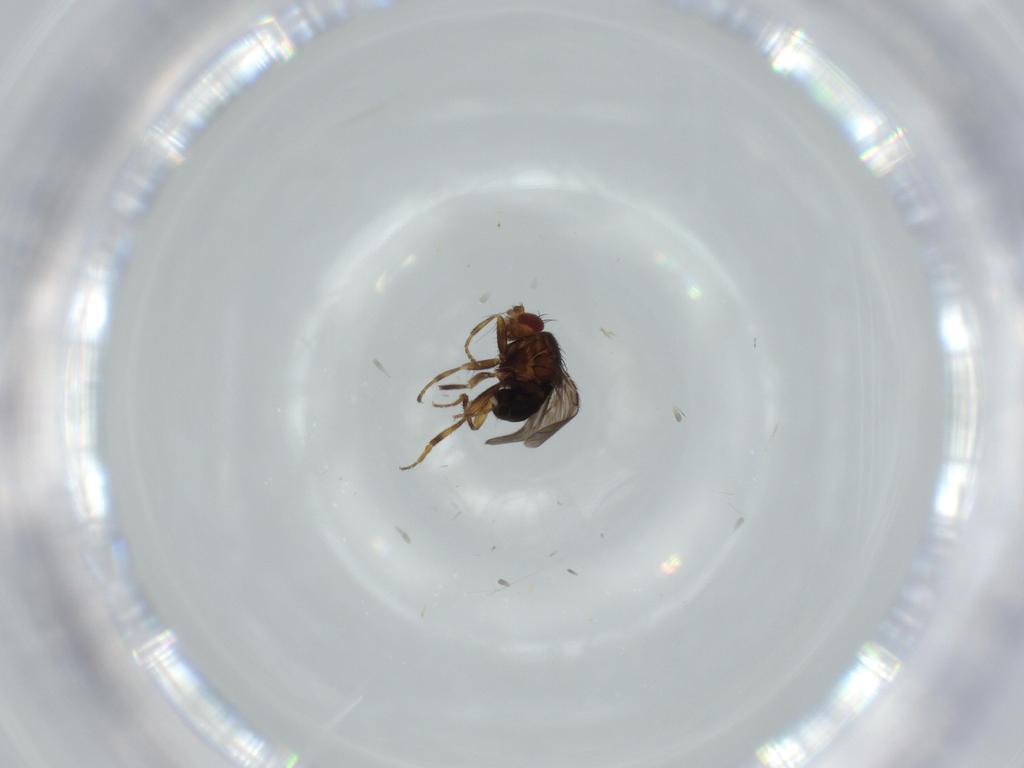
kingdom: Animalia
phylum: Arthropoda
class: Insecta
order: Diptera
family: Sphaeroceridae
